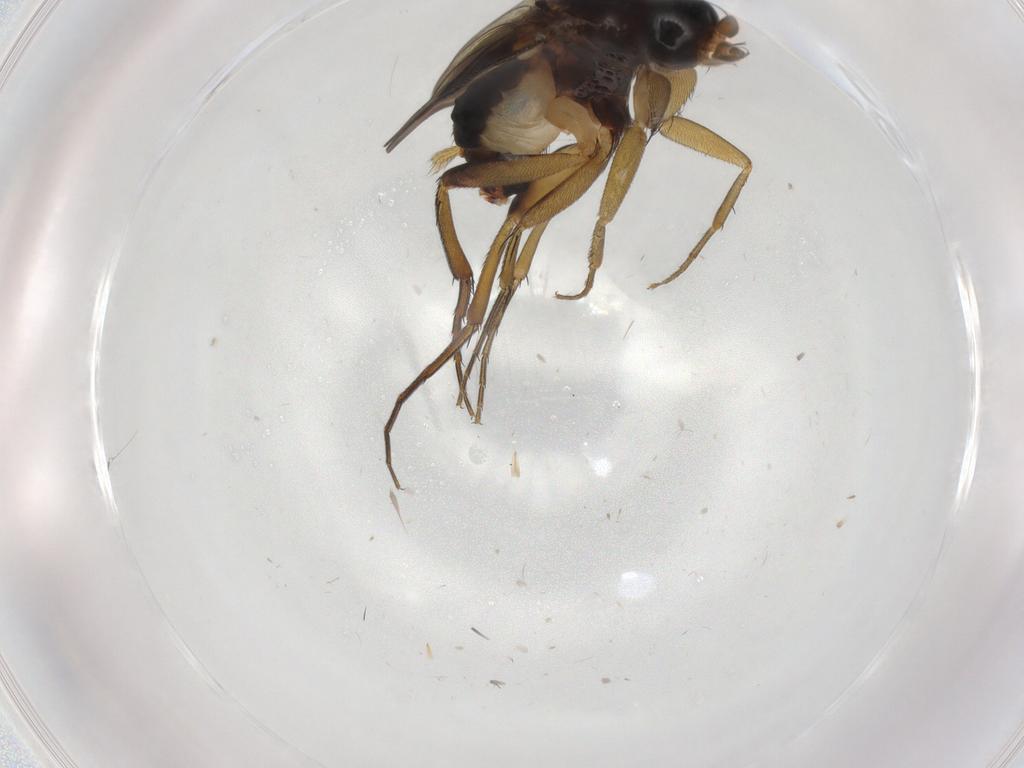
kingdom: Animalia
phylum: Arthropoda
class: Insecta
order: Diptera
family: Phoridae
